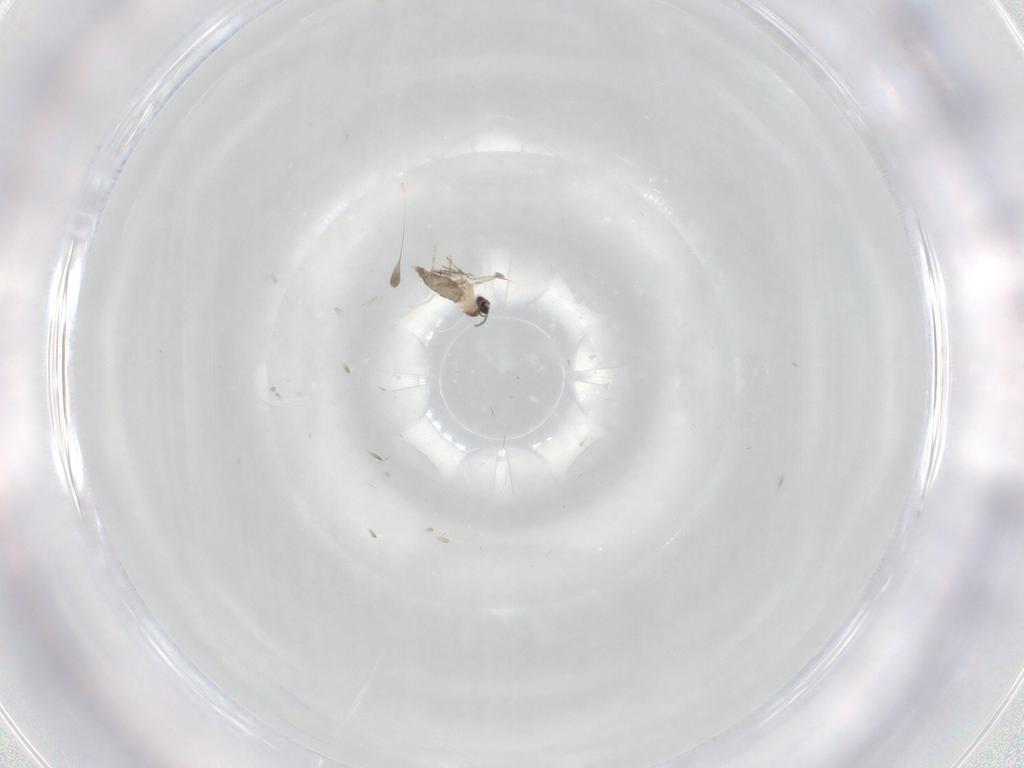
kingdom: Animalia
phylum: Arthropoda
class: Insecta
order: Diptera
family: Cecidomyiidae
